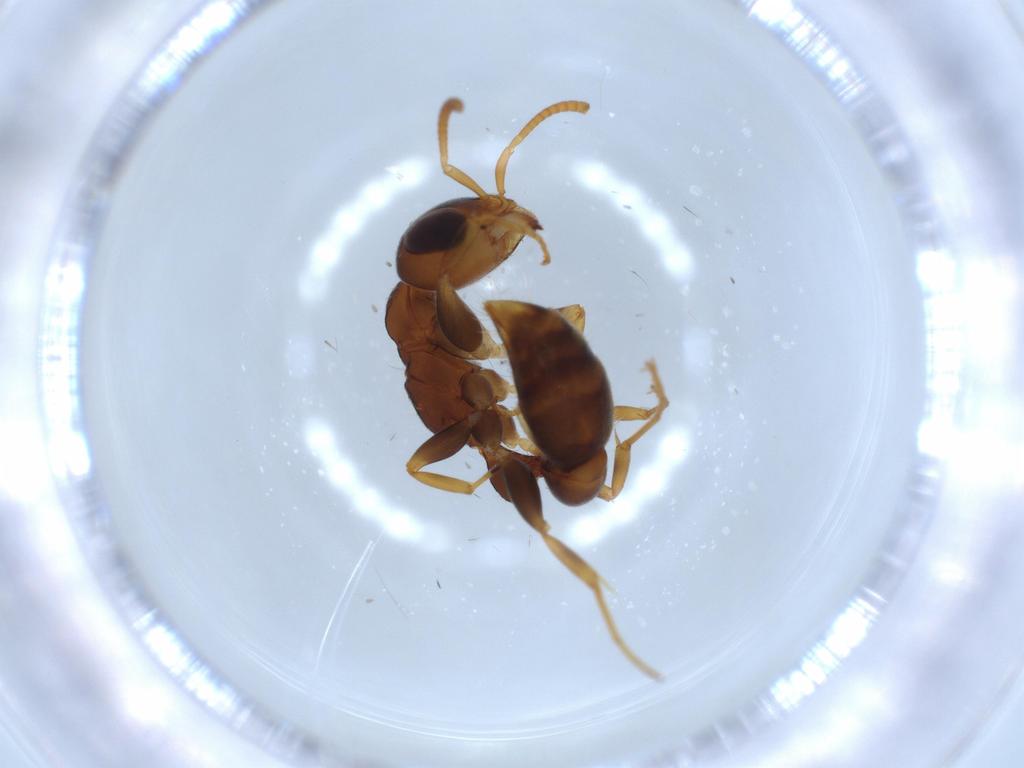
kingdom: Animalia
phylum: Arthropoda
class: Insecta
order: Hymenoptera
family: Formicidae
